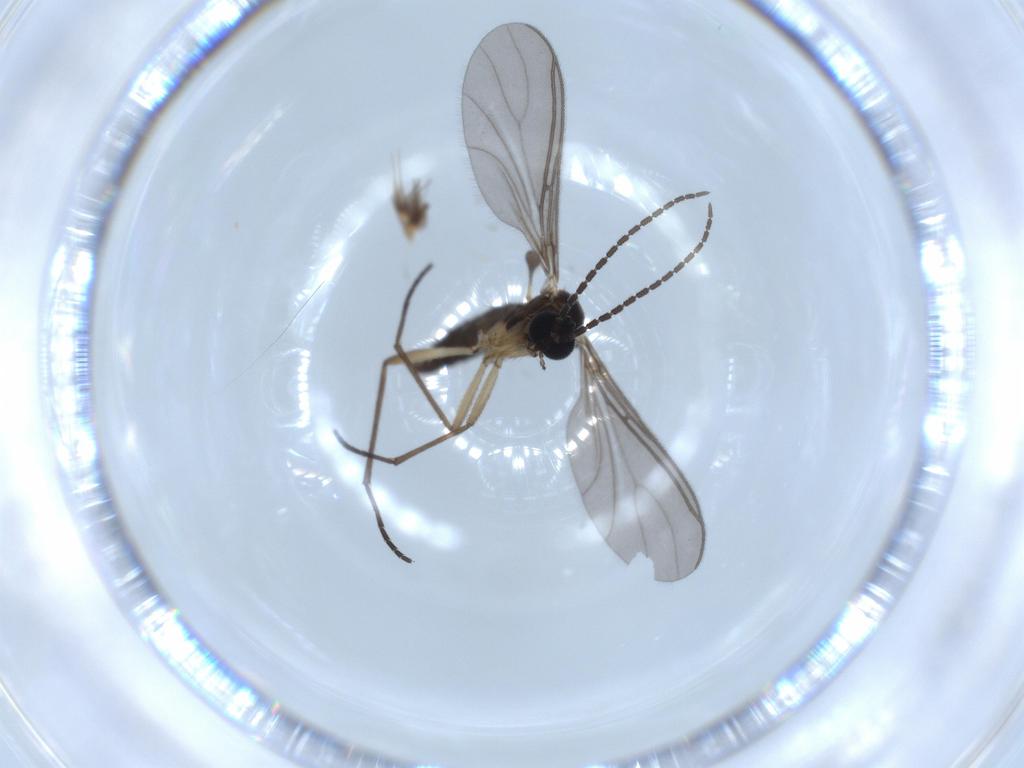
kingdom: Animalia
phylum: Arthropoda
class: Insecta
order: Diptera
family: Sciaridae
